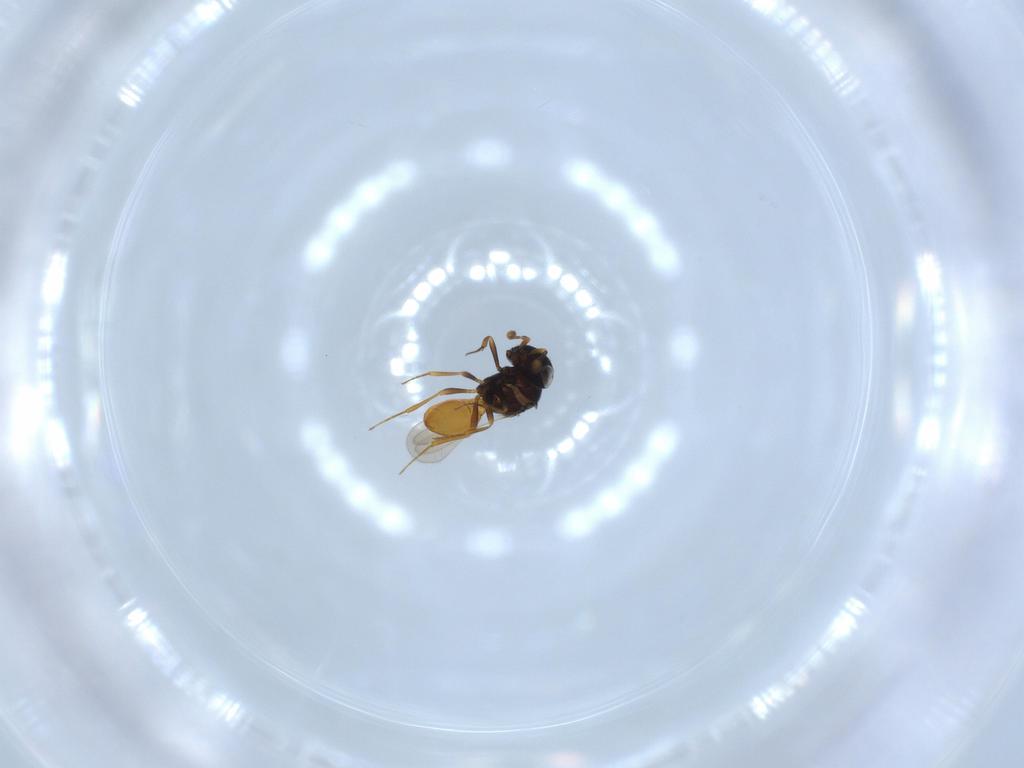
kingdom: Animalia
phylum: Arthropoda
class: Insecta
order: Hymenoptera
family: Scelionidae
